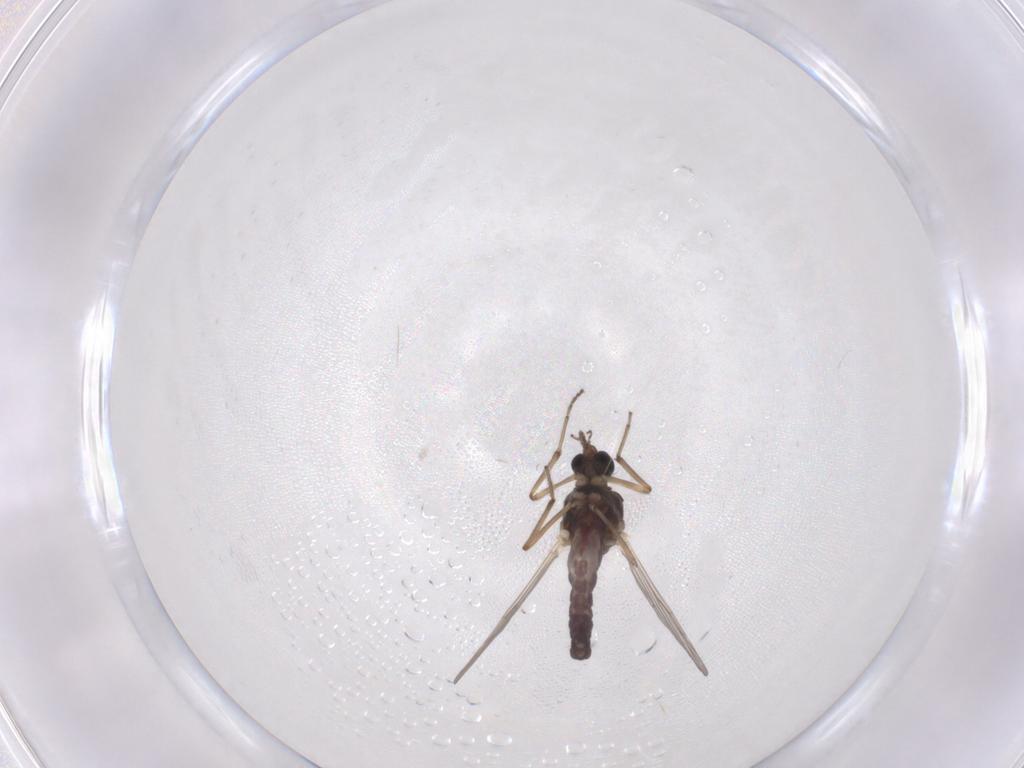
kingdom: Animalia
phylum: Arthropoda
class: Insecta
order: Diptera
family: Ceratopogonidae
